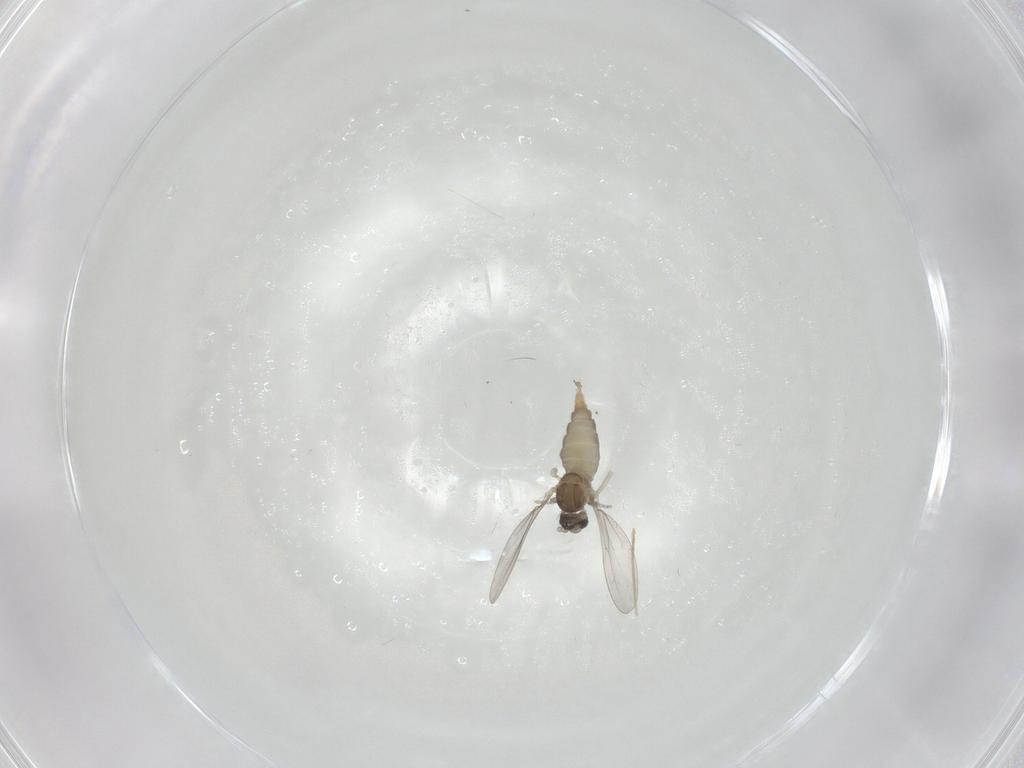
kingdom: Animalia
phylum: Arthropoda
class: Insecta
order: Diptera
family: Cecidomyiidae
